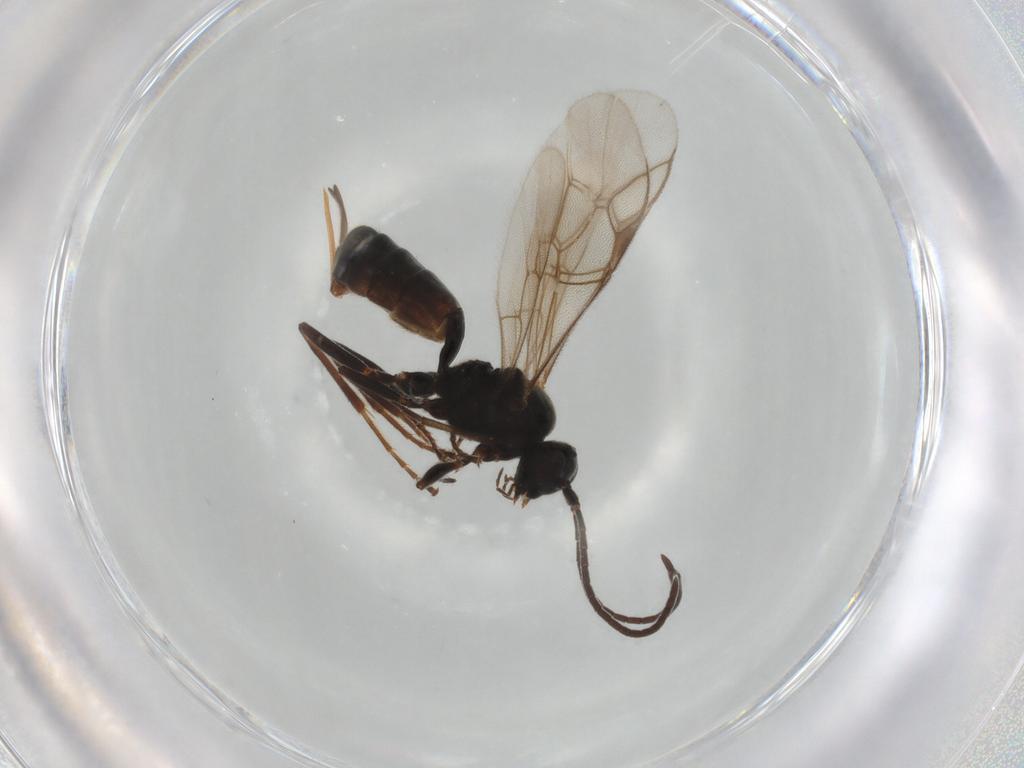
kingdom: Animalia
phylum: Arthropoda
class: Insecta
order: Hymenoptera
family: Ichneumonidae
